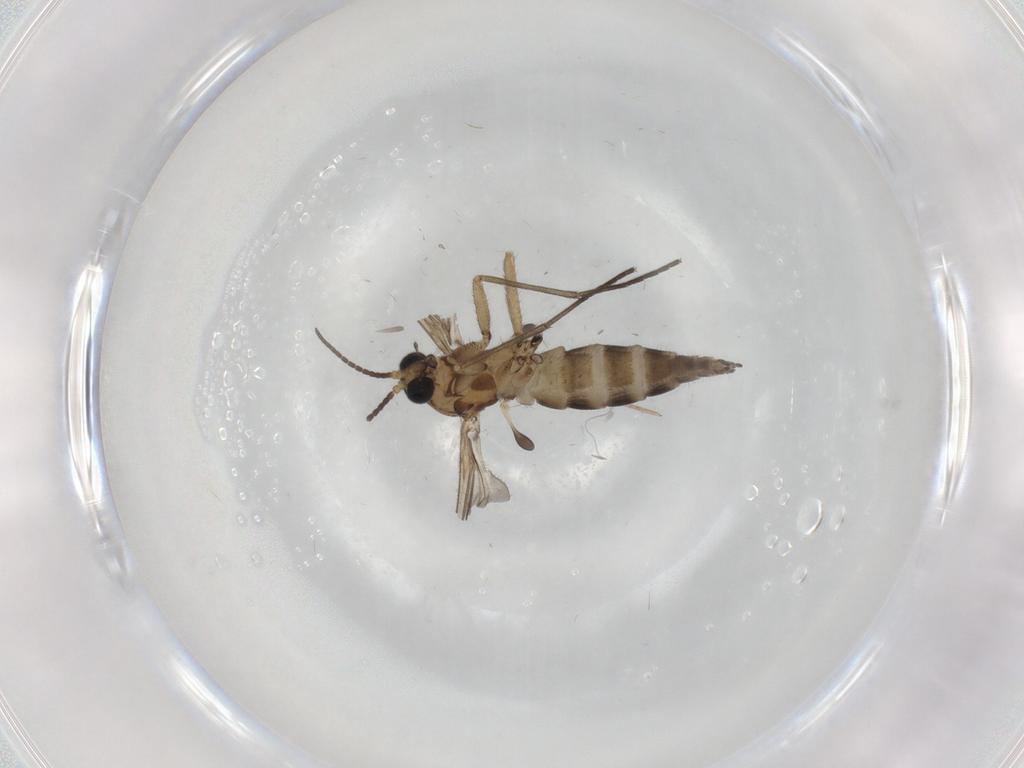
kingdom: Animalia
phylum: Arthropoda
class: Insecta
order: Diptera
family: Sciaridae
